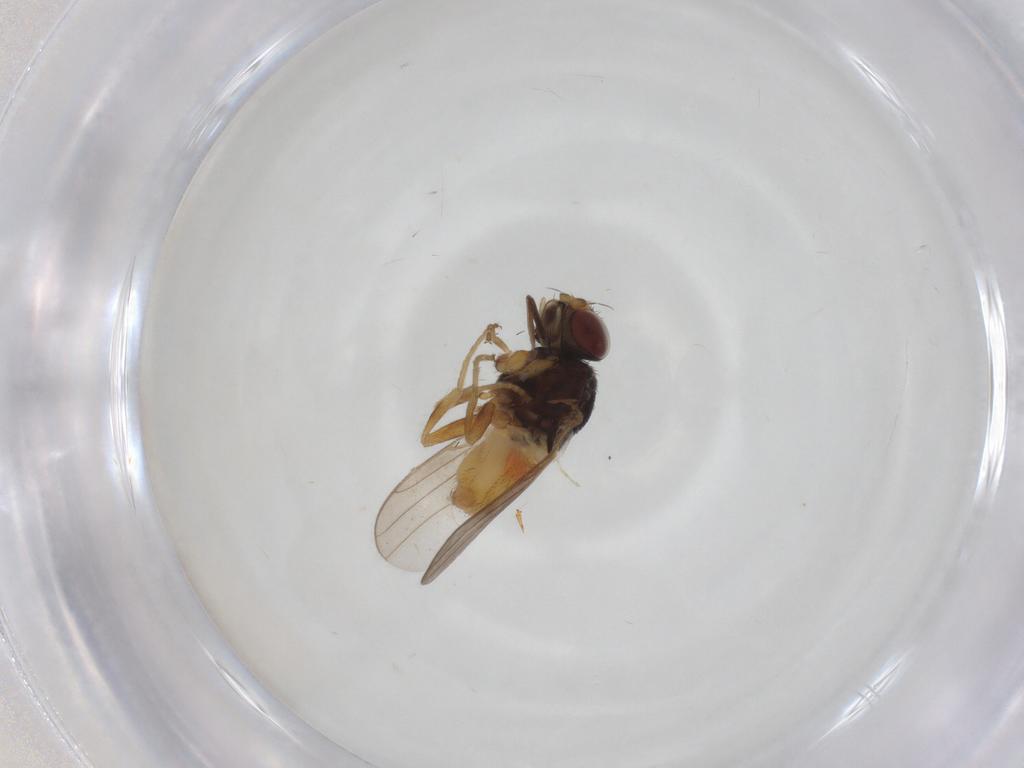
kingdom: Animalia
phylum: Arthropoda
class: Insecta
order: Diptera
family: Chloropidae
